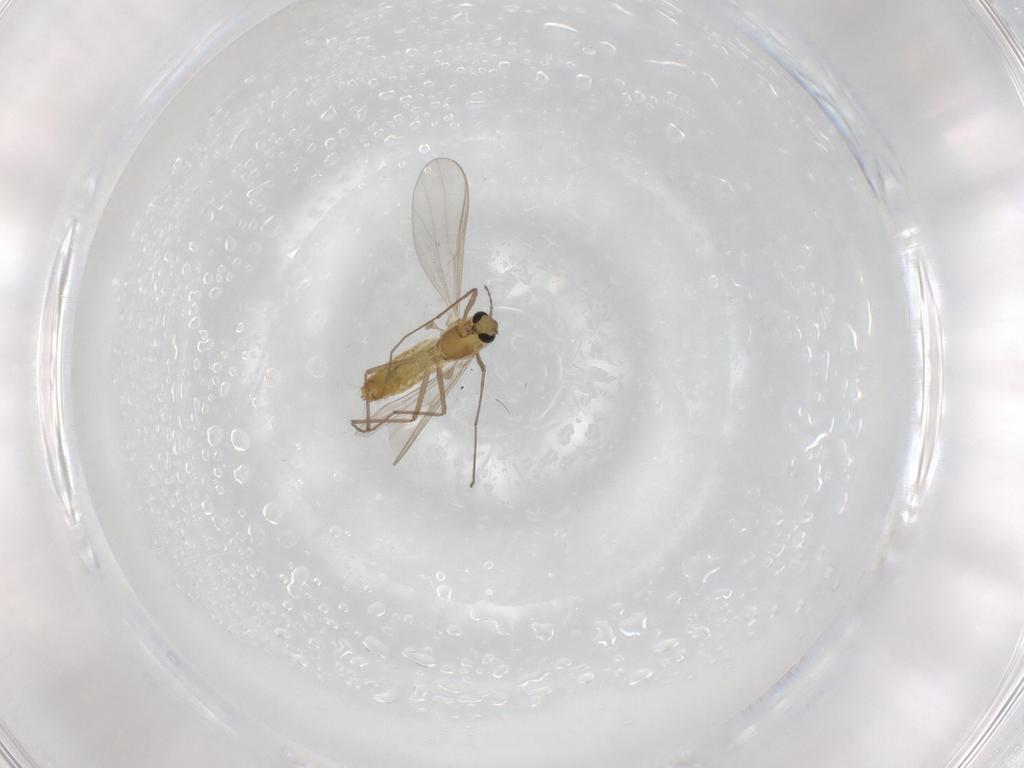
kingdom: Animalia
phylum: Arthropoda
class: Insecta
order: Diptera
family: Chironomidae
